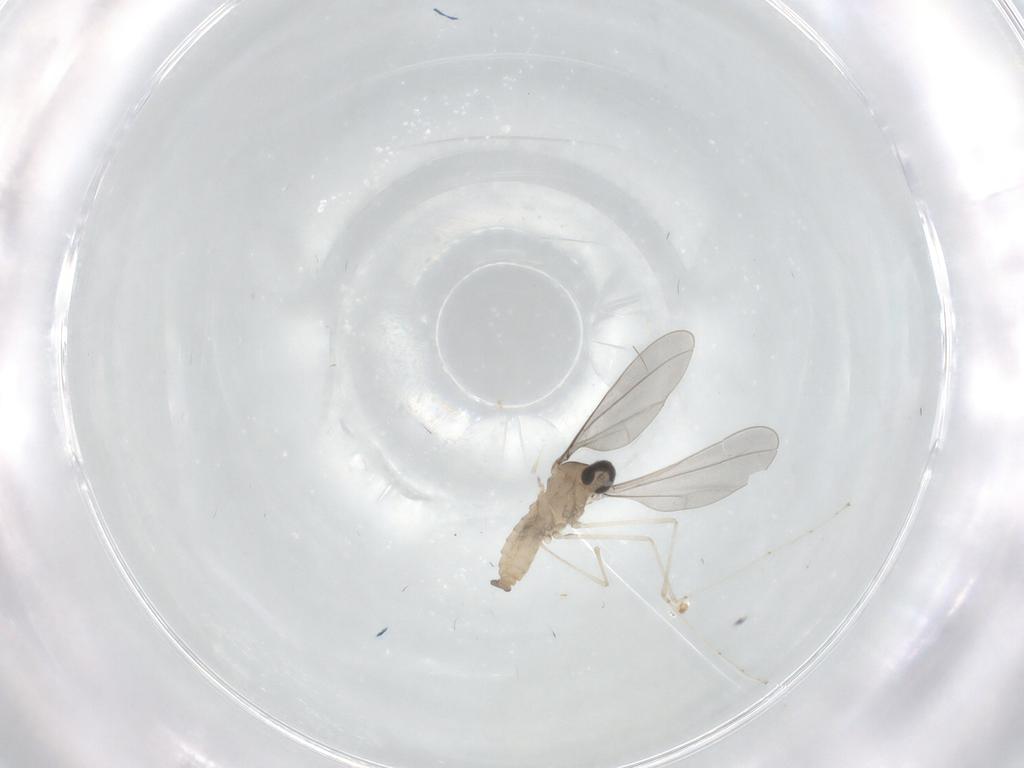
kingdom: Animalia
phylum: Arthropoda
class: Insecta
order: Diptera
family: Cecidomyiidae
